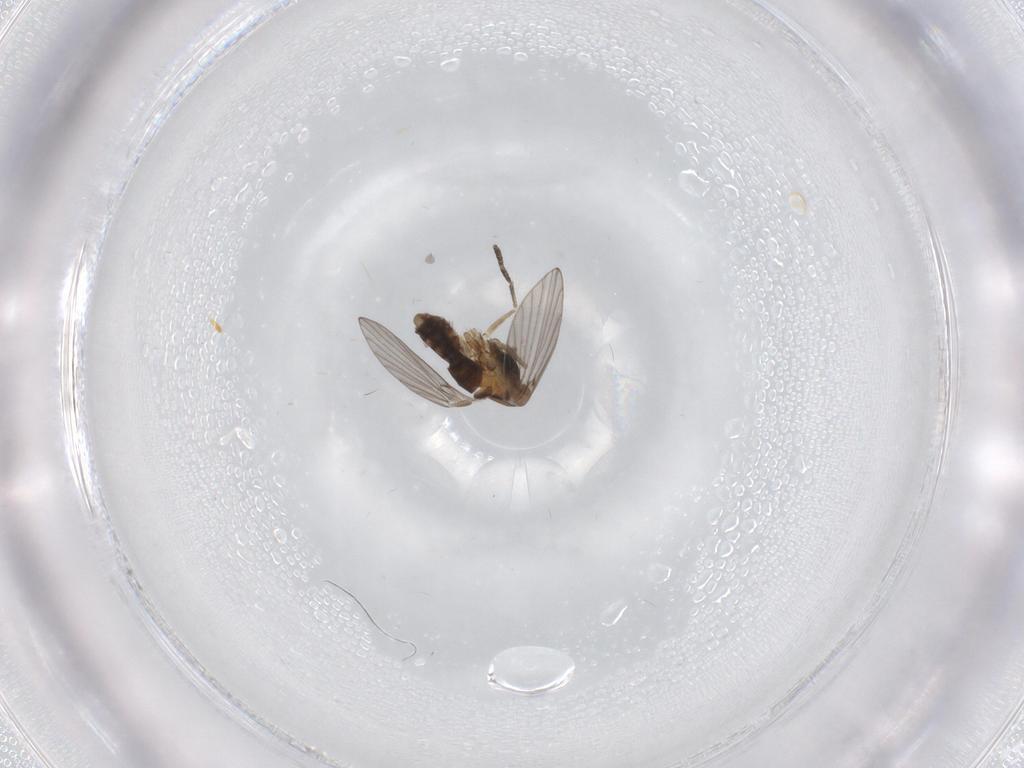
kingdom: Animalia
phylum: Arthropoda
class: Insecta
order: Diptera
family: Psychodidae
